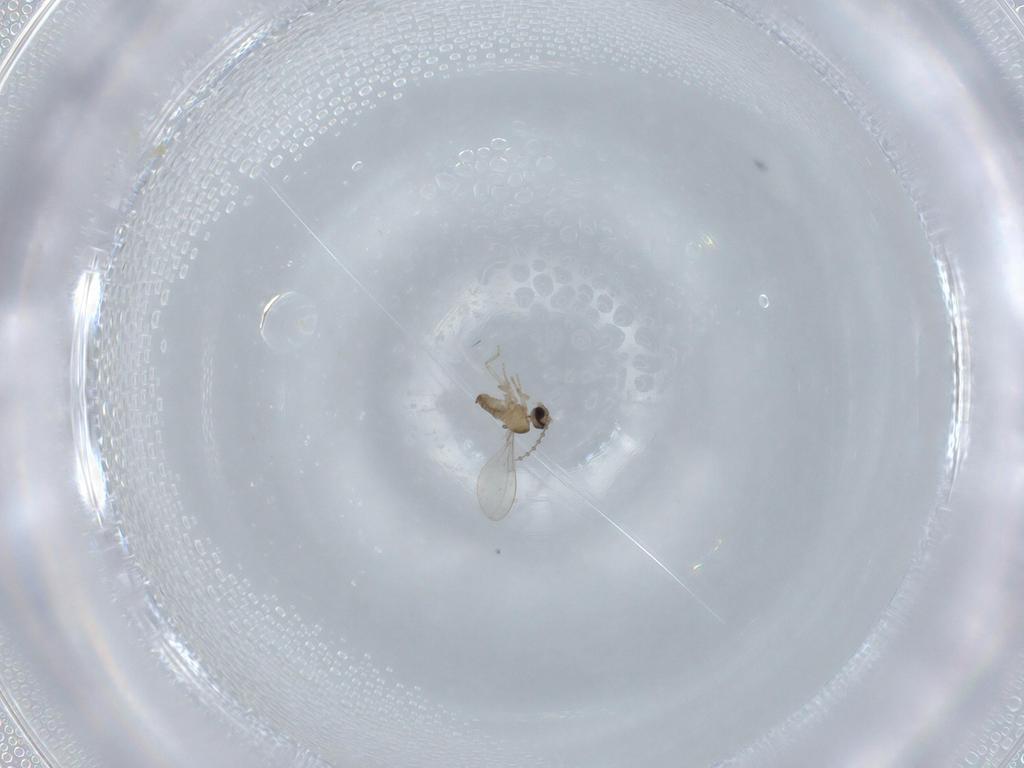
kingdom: Animalia
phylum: Arthropoda
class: Insecta
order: Diptera
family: Cecidomyiidae
